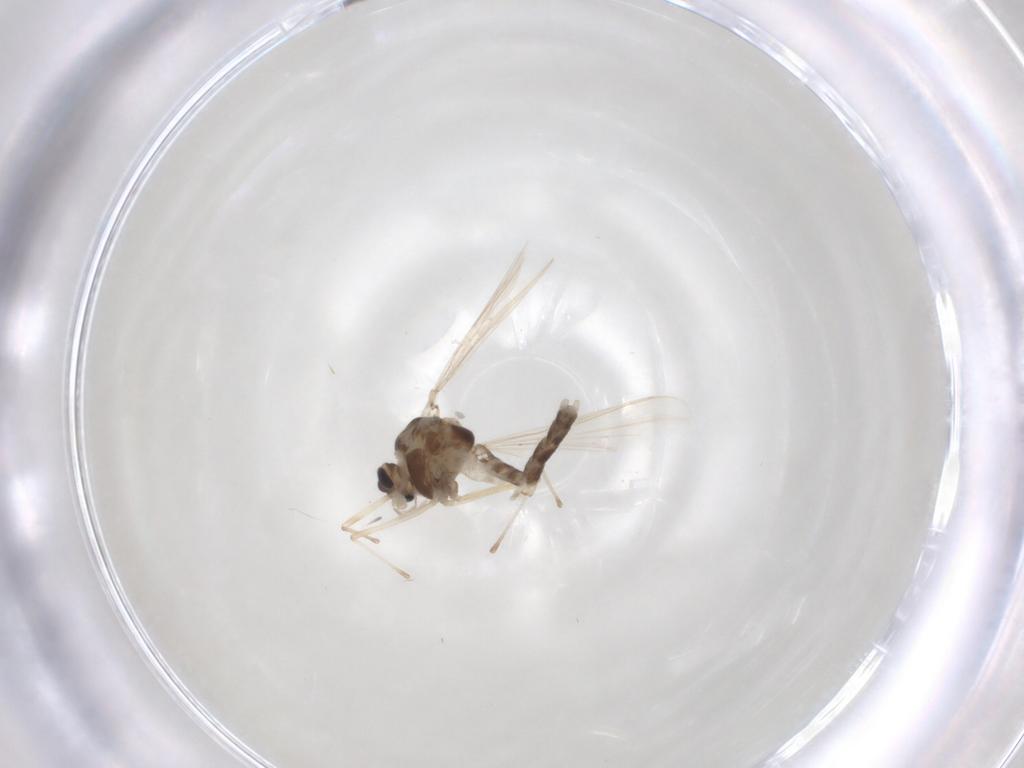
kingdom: Animalia
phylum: Arthropoda
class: Insecta
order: Diptera
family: Chironomidae
